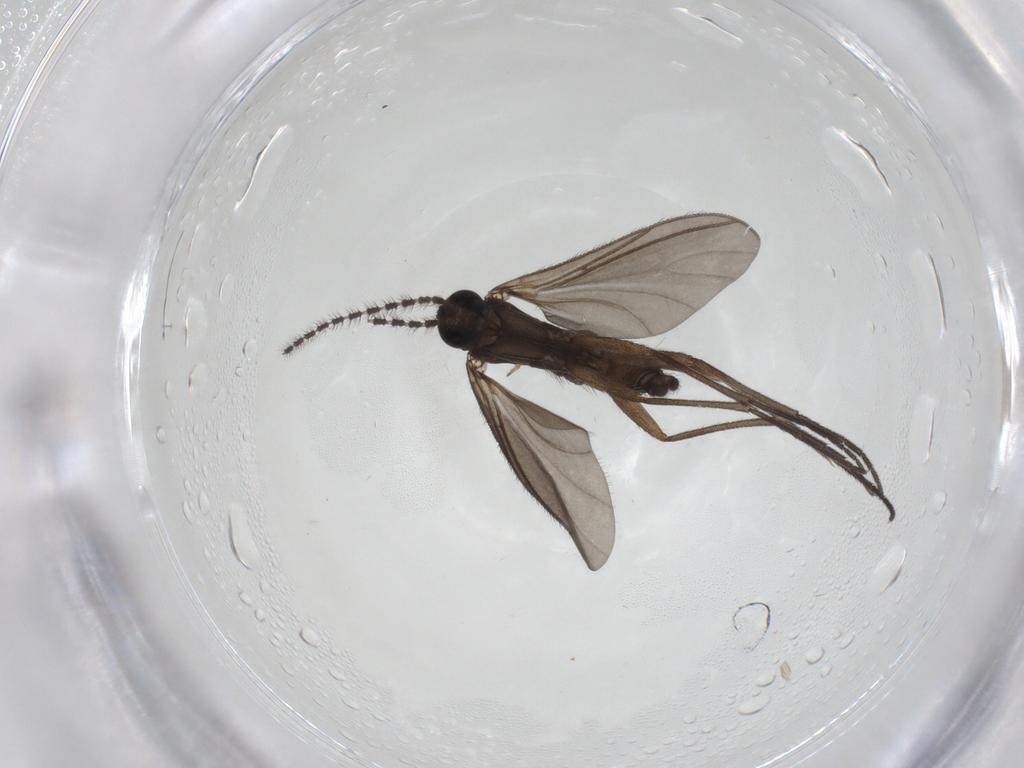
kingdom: Animalia
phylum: Arthropoda
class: Insecta
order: Diptera
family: Sciaridae
